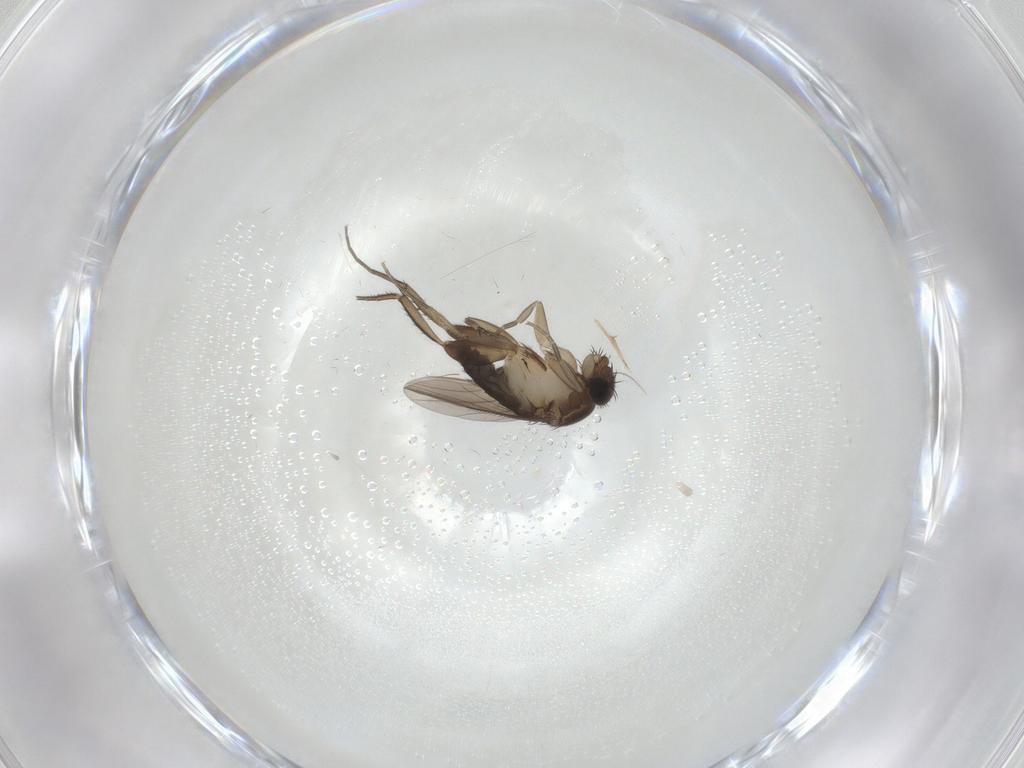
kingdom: Animalia
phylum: Arthropoda
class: Insecta
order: Diptera
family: Phoridae
